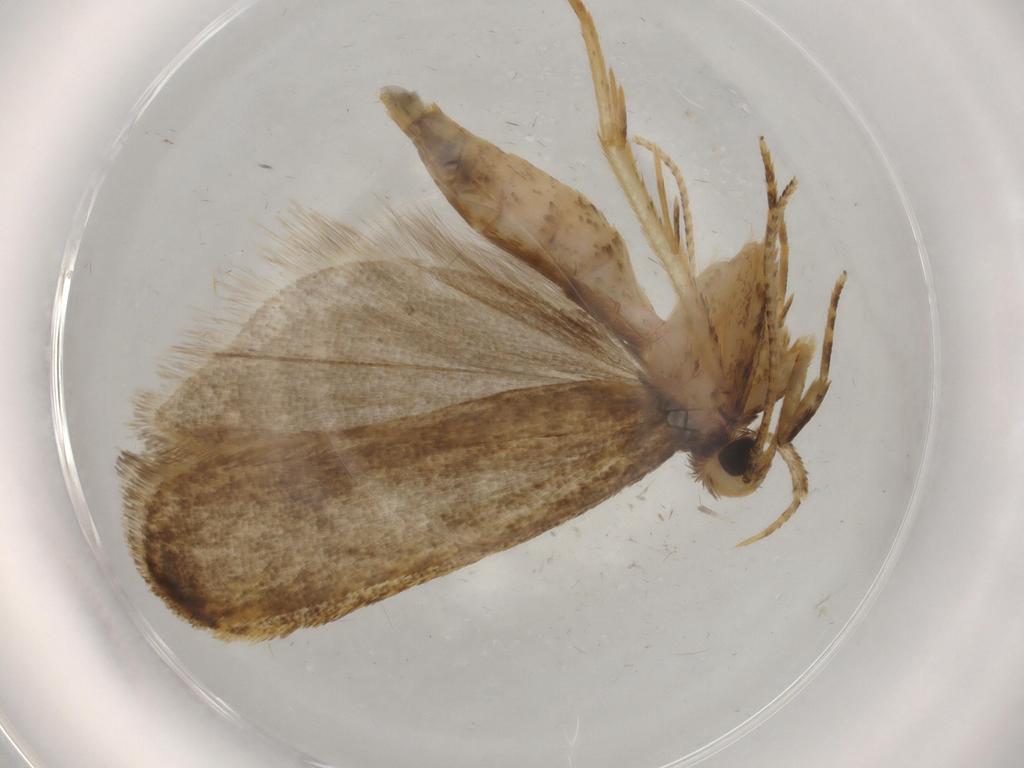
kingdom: Animalia
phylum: Arthropoda
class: Insecta
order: Lepidoptera
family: Autostichidae
